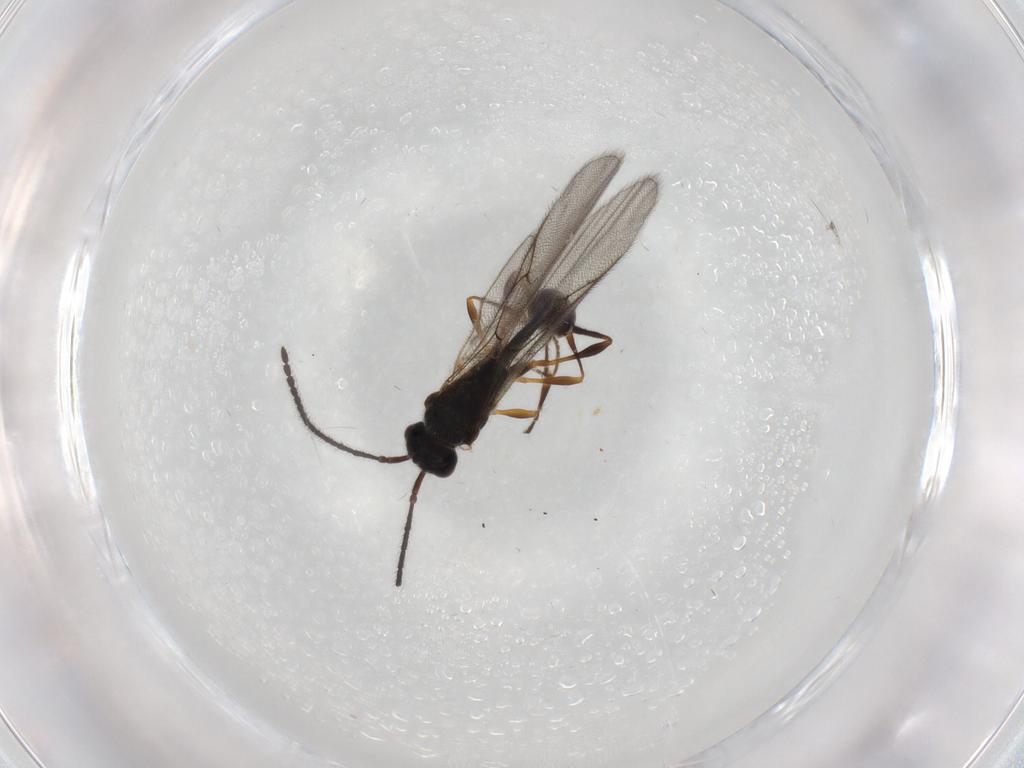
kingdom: Animalia
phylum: Arthropoda
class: Insecta
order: Hymenoptera
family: Diapriidae
